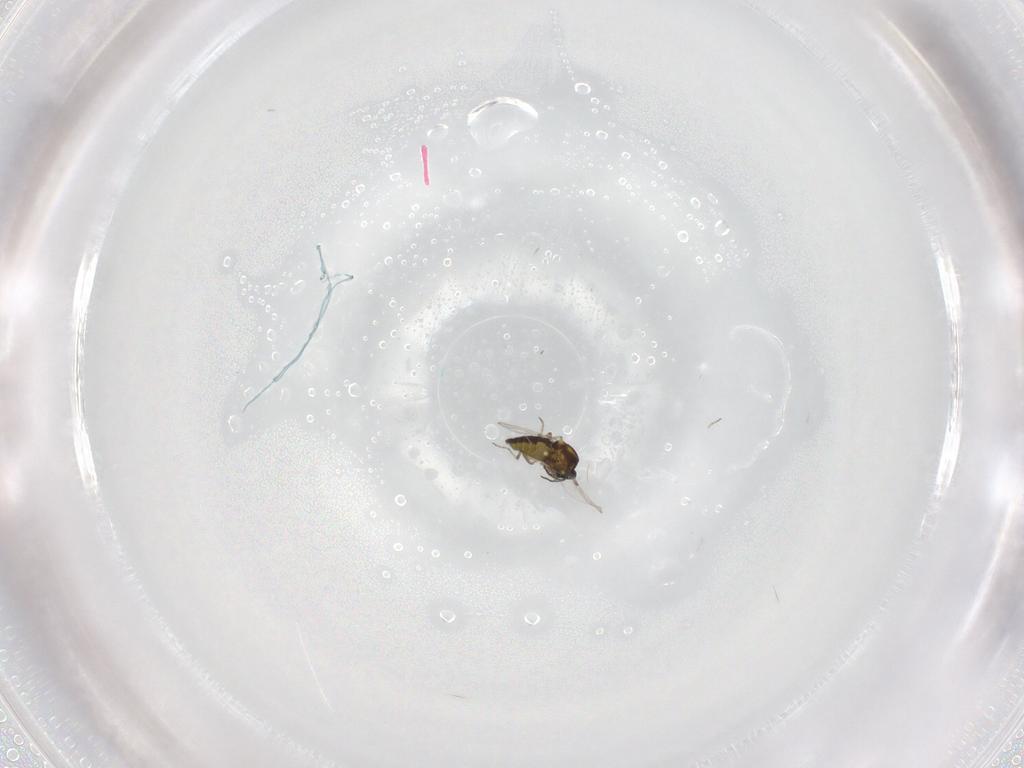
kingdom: Animalia
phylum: Arthropoda
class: Insecta
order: Diptera
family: Ceratopogonidae
